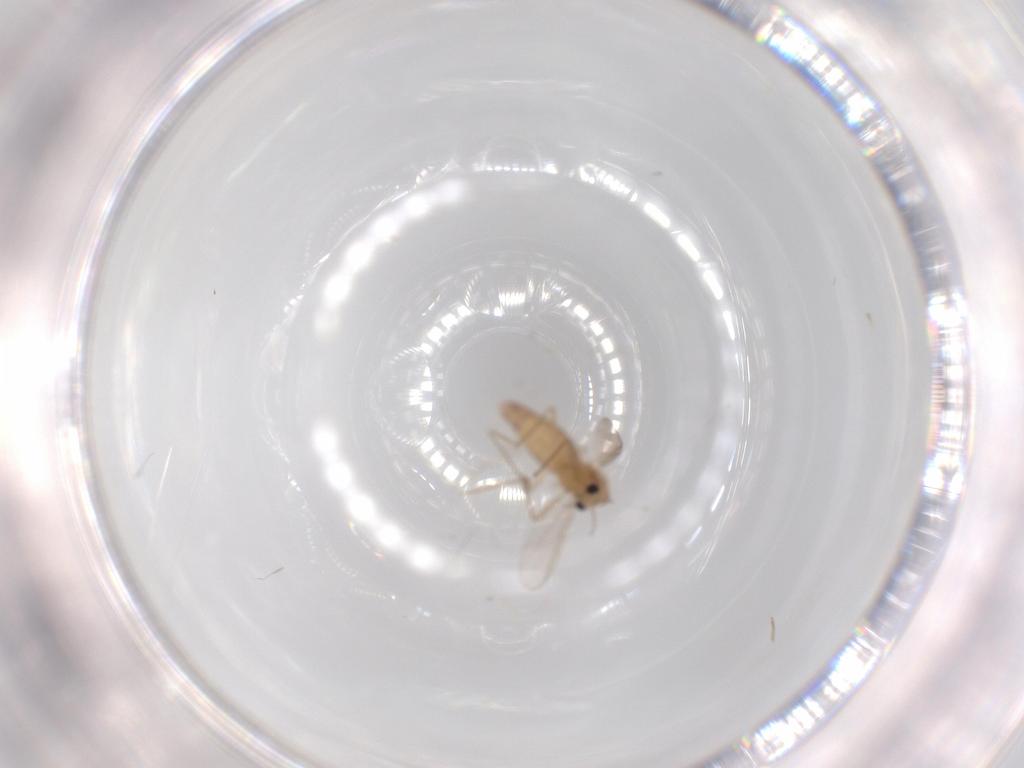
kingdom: Animalia
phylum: Arthropoda
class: Insecta
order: Diptera
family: Chironomidae
